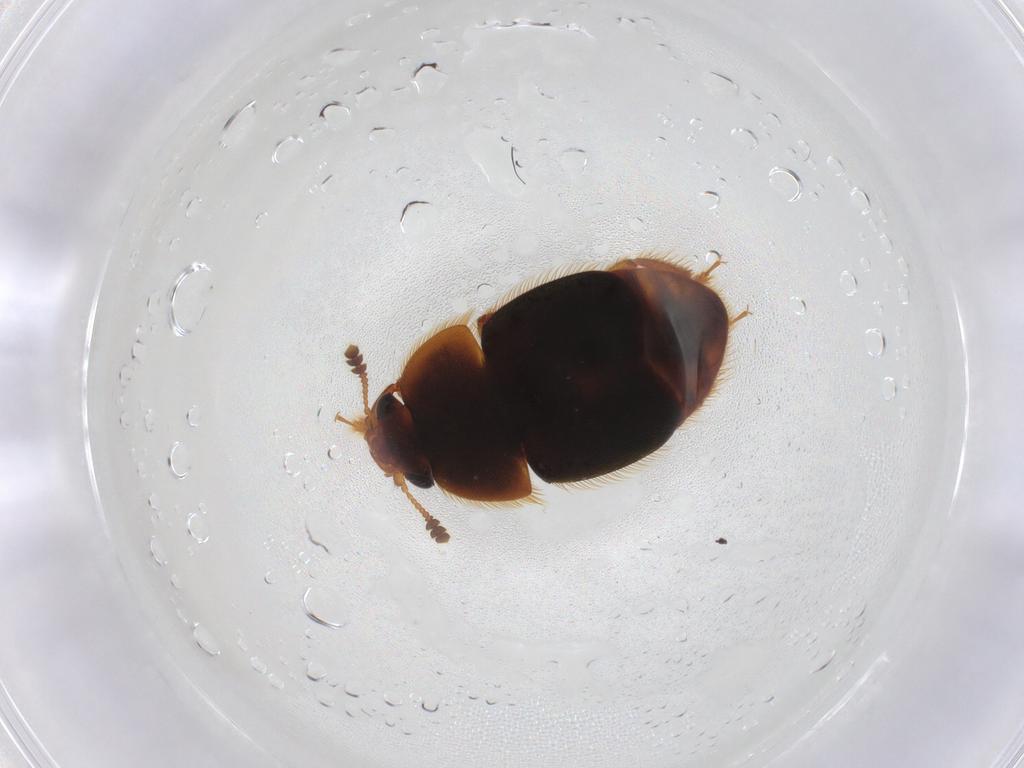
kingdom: Animalia
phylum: Arthropoda
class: Insecta
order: Coleoptera
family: Nitidulidae
